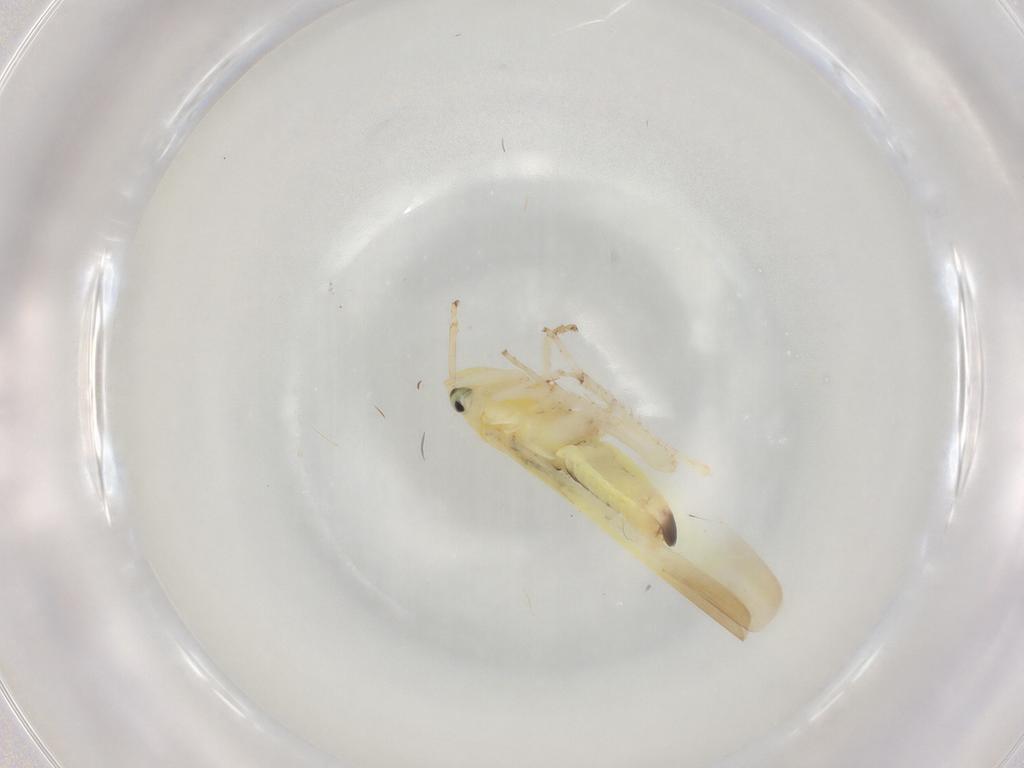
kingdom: Animalia
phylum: Arthropoda
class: Insecta
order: Hemiptera
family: Cicadellidae
